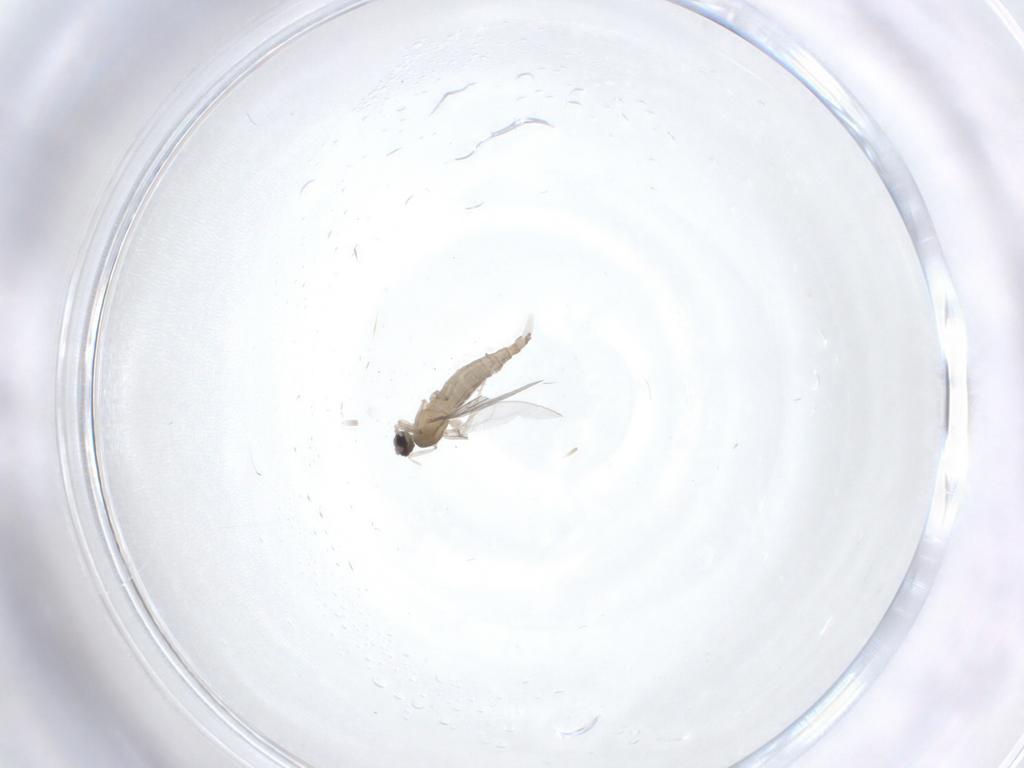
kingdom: Animalia
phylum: Arthropoda
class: Insecta
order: Diptera
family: Cecidomyiidae
